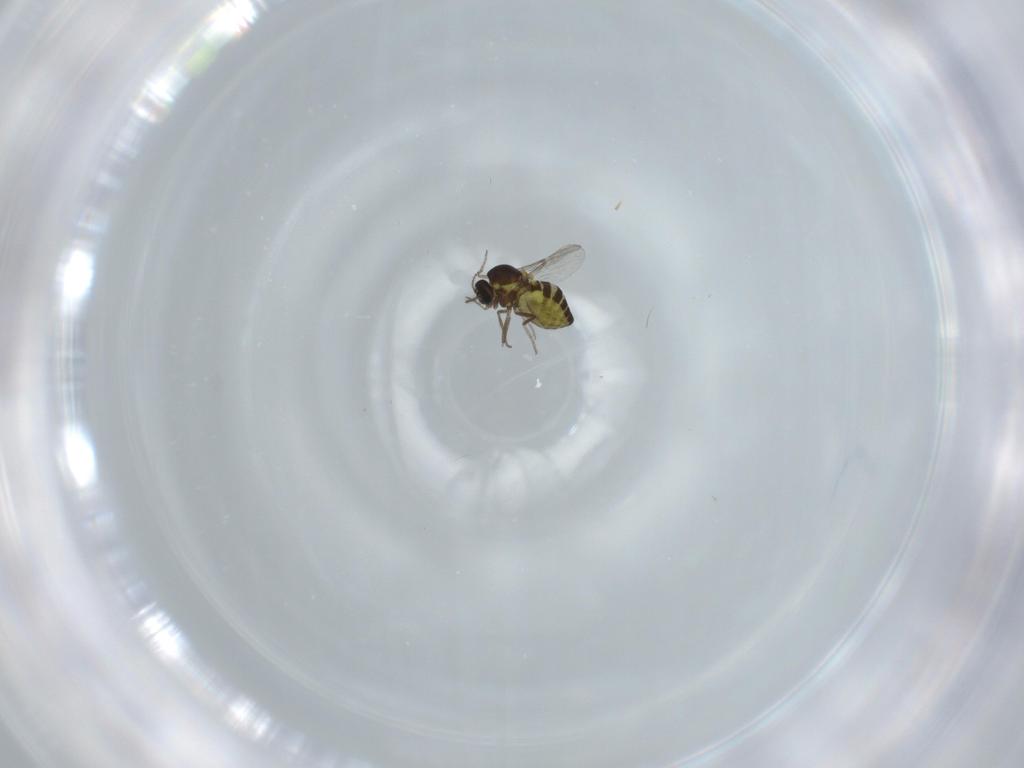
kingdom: Animalia
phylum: Arthropoda
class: Insecta
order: Diptera
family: Ceratopogonidae
